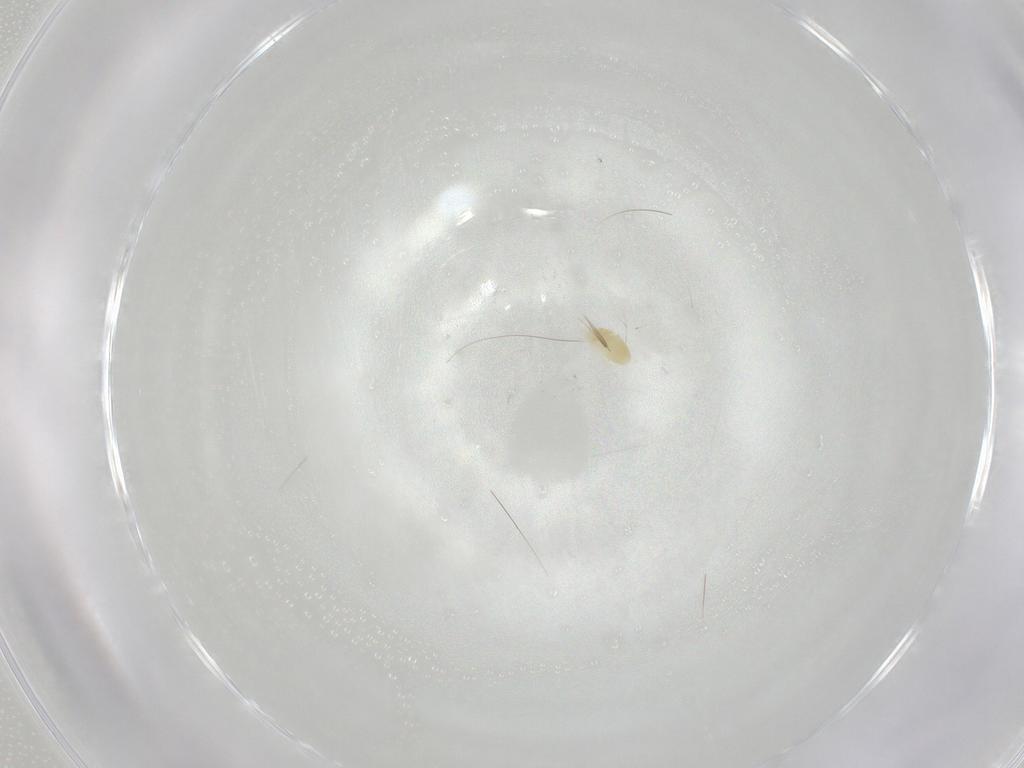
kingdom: Animalia
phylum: Arthropoda
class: Arachnida
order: Trombidiformes
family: Eupodidae
